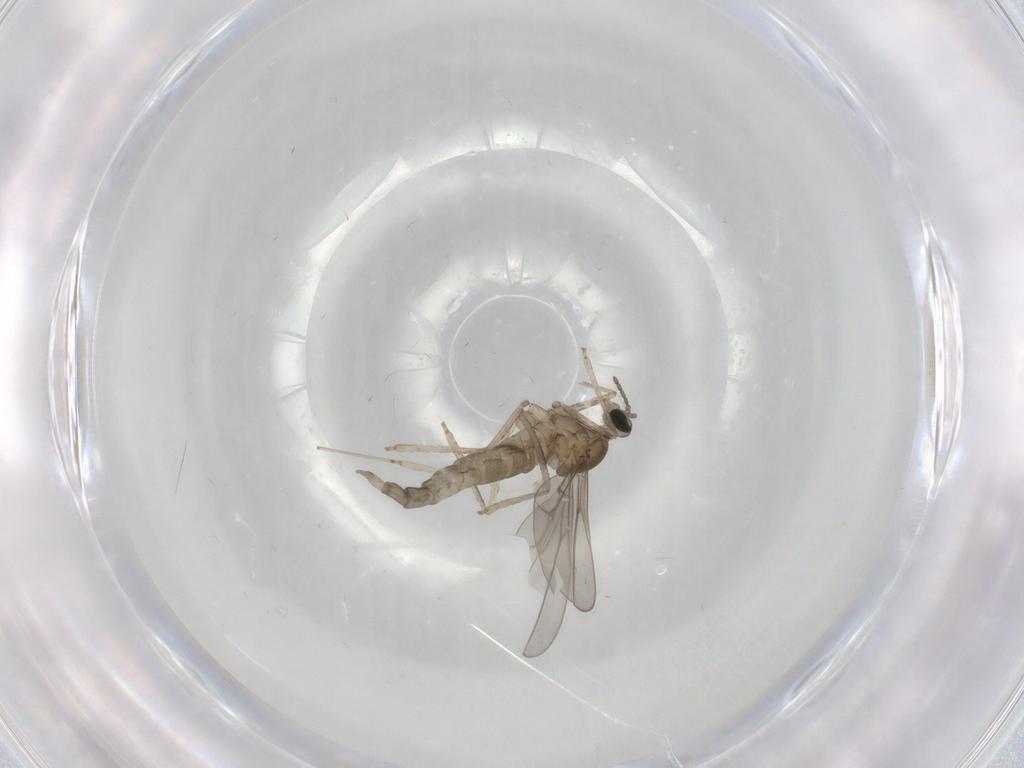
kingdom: Animalia
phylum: Arthropoda
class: Insecta
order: Diptera
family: Cecidomyiidae
